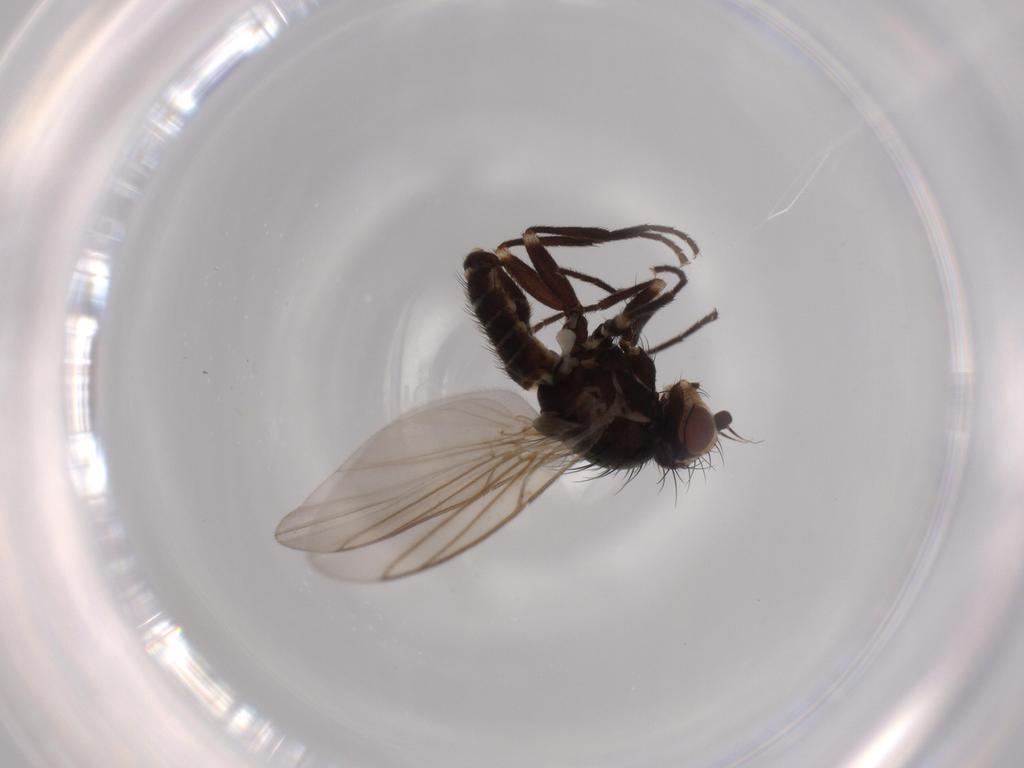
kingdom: Animalia
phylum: Arthropoda
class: Insecta
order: Diptera
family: Agromyzidae
